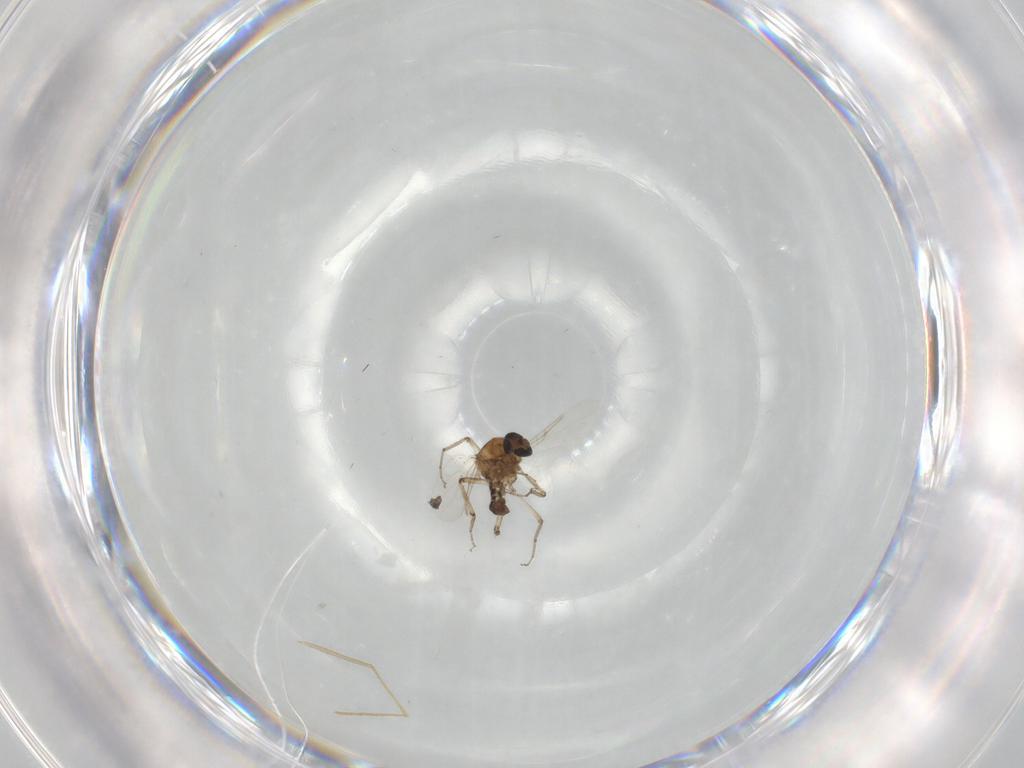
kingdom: Animalia
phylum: Arthropoda
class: Insecta
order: Diptera
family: Ceratopogonidae
